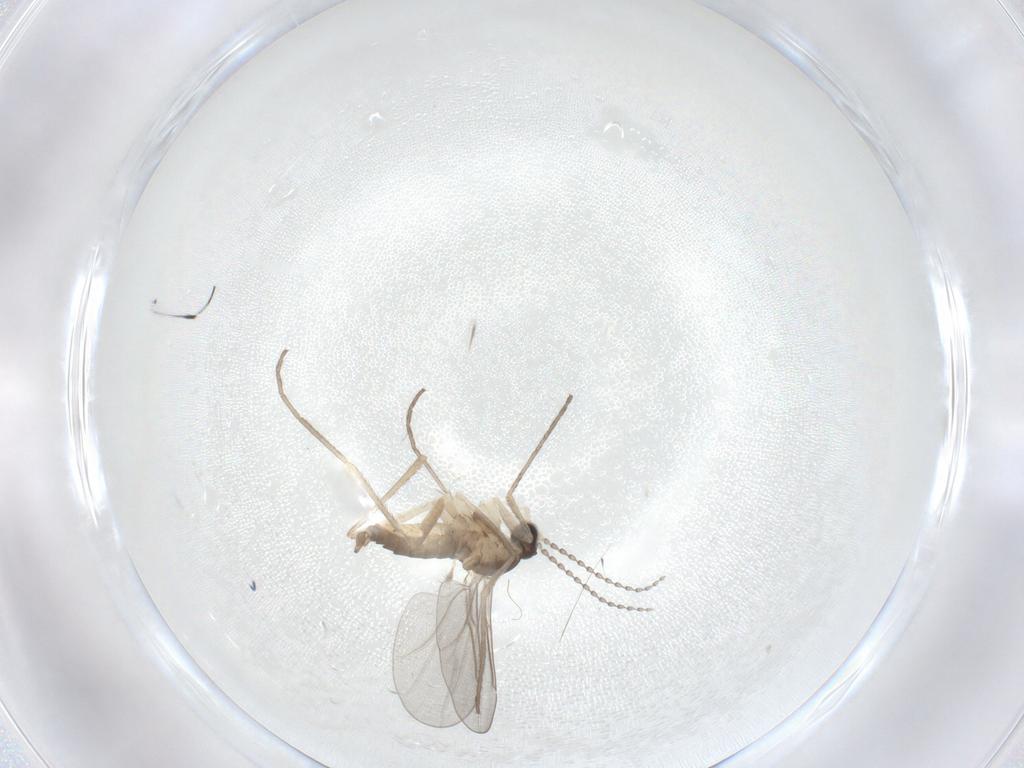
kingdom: Animalia
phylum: Arthropoda
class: Insecta
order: Diptera
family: Cecidomyiidae
